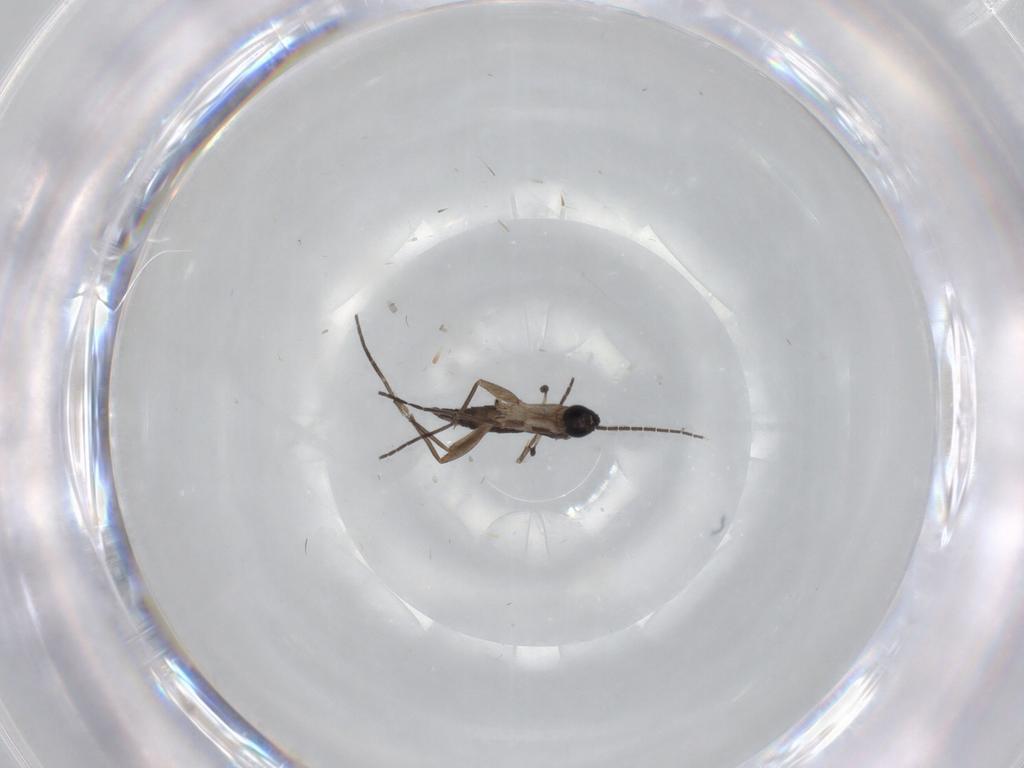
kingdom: Animalia
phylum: Arthropoda
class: Insecta
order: Diptera
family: Sciaridae
